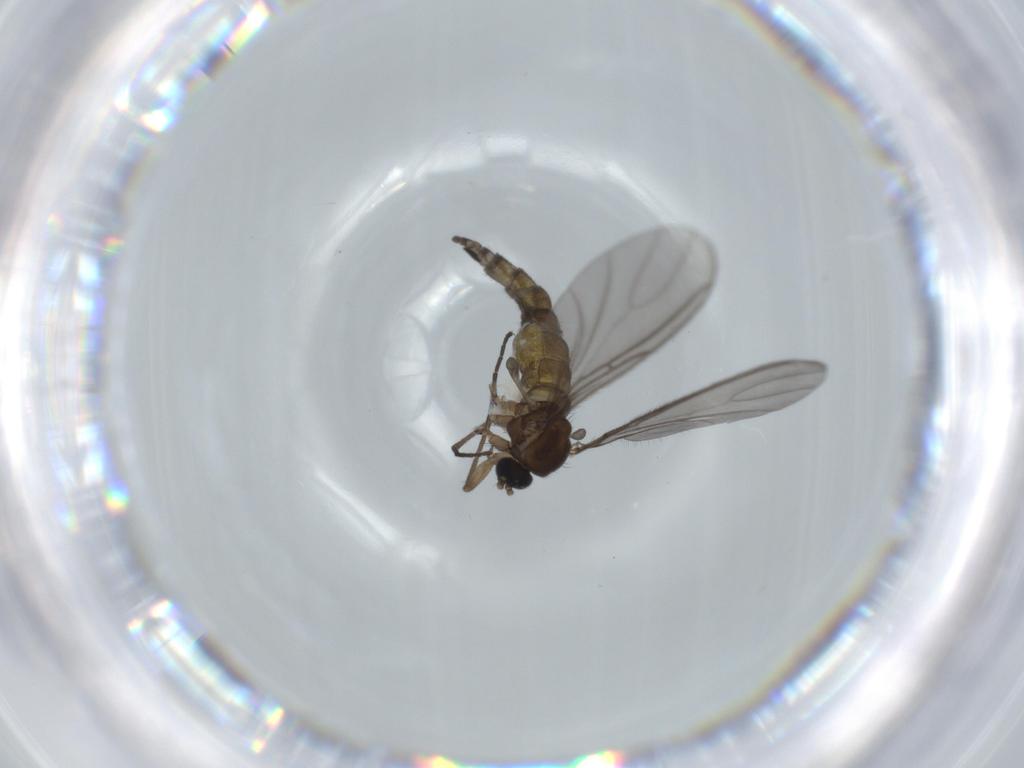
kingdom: Animalia
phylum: Arthropoda
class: Insecta
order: Diptera
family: Sciaridae
